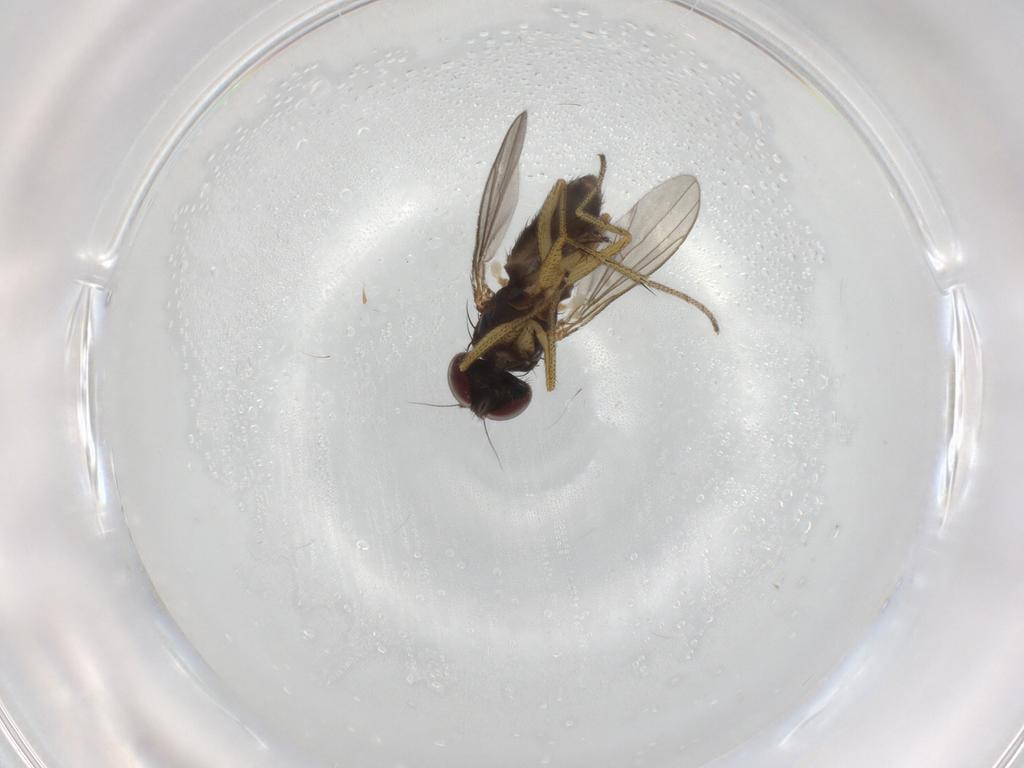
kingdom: Animalia
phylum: Arthropoda
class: Insecta
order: Diptera
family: Dolichopodidae
